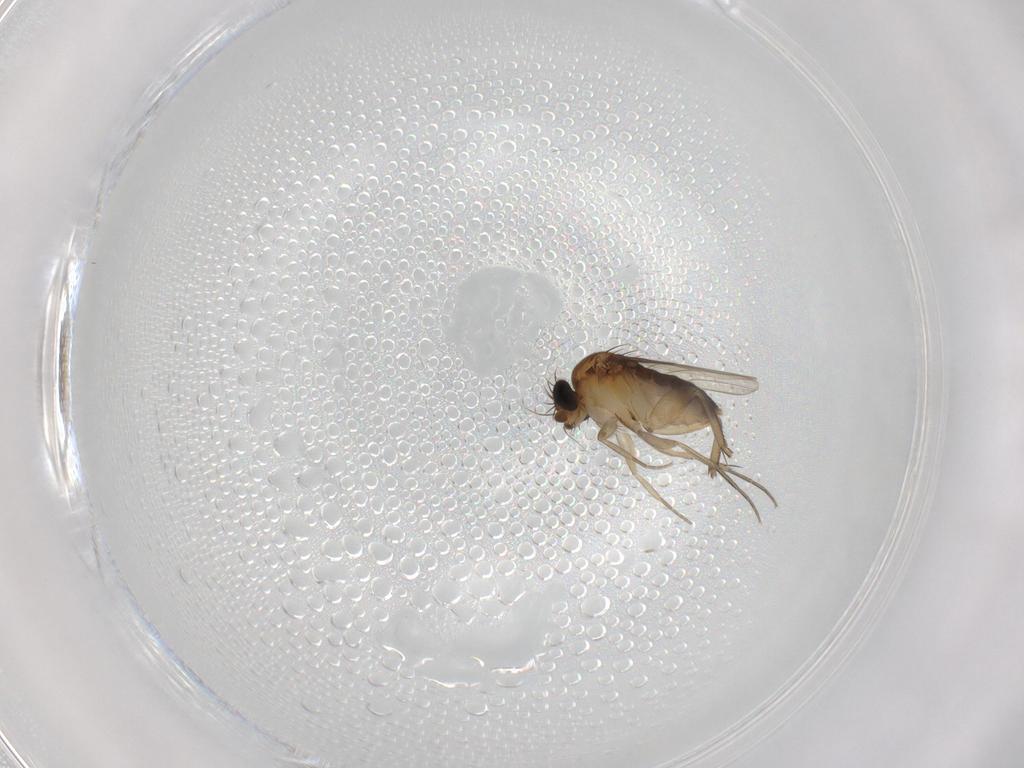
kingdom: Animalia
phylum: Arthropoda
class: Insecta
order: Diptera
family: Phoridae
